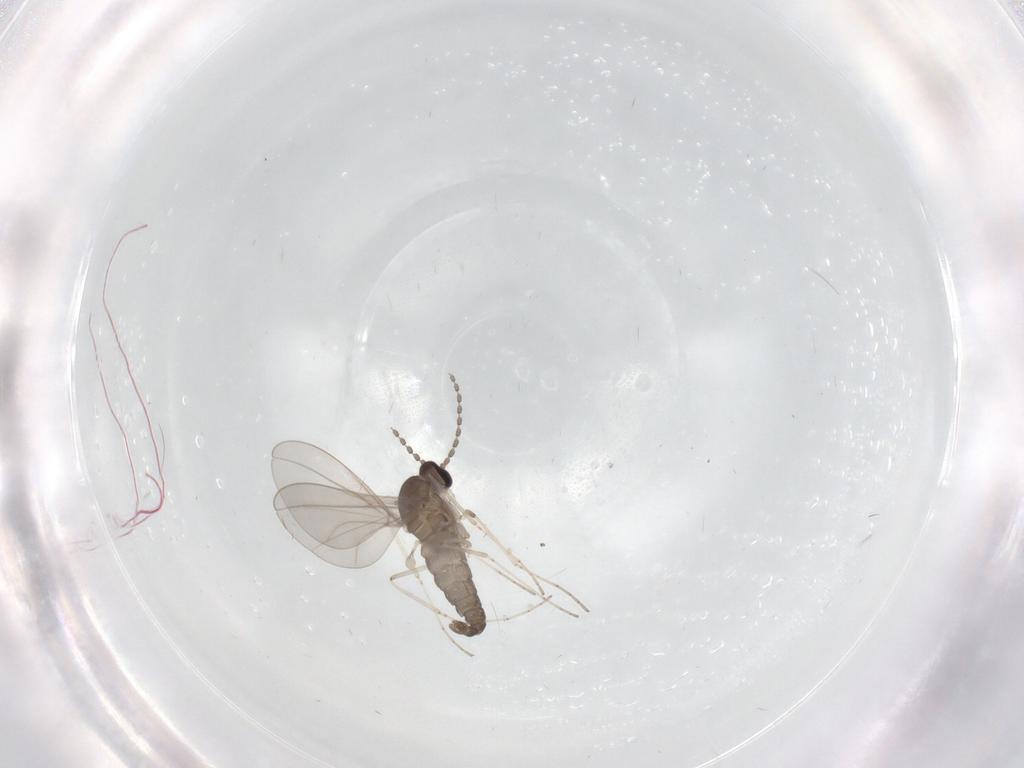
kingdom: Animalia
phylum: Arthropoda
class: Insecta
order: Diptera
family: Cecidomyiidae
